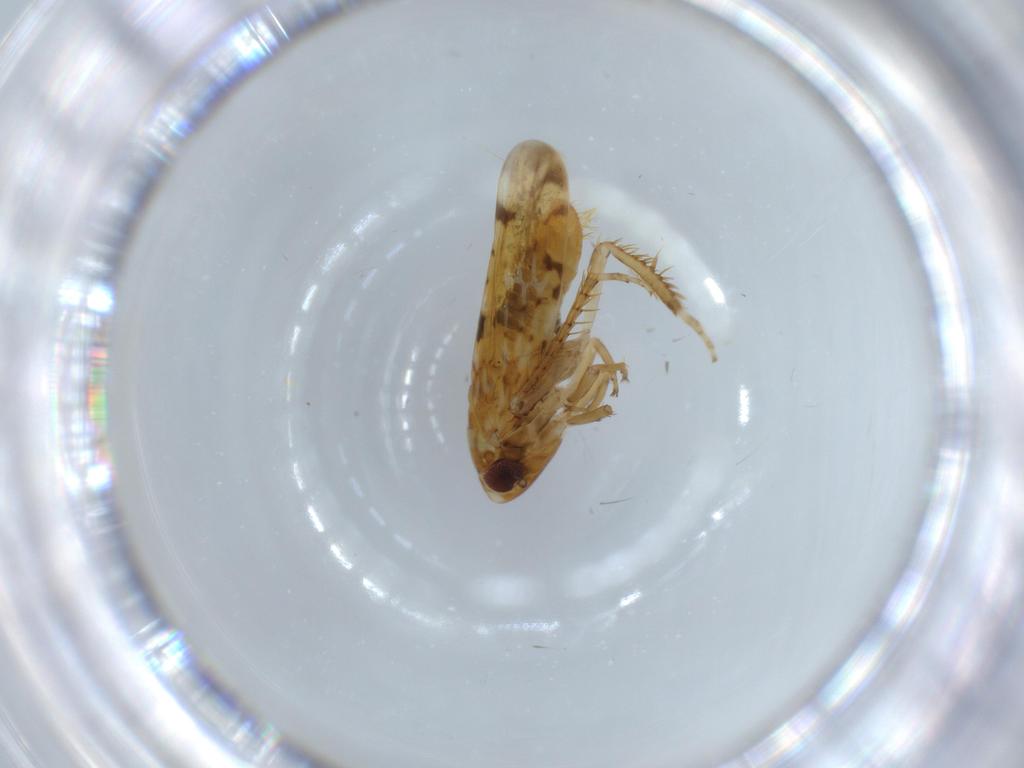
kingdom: Animalia
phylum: Arthropoda
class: Insecta
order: Hemiptera
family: Cicadellidae
